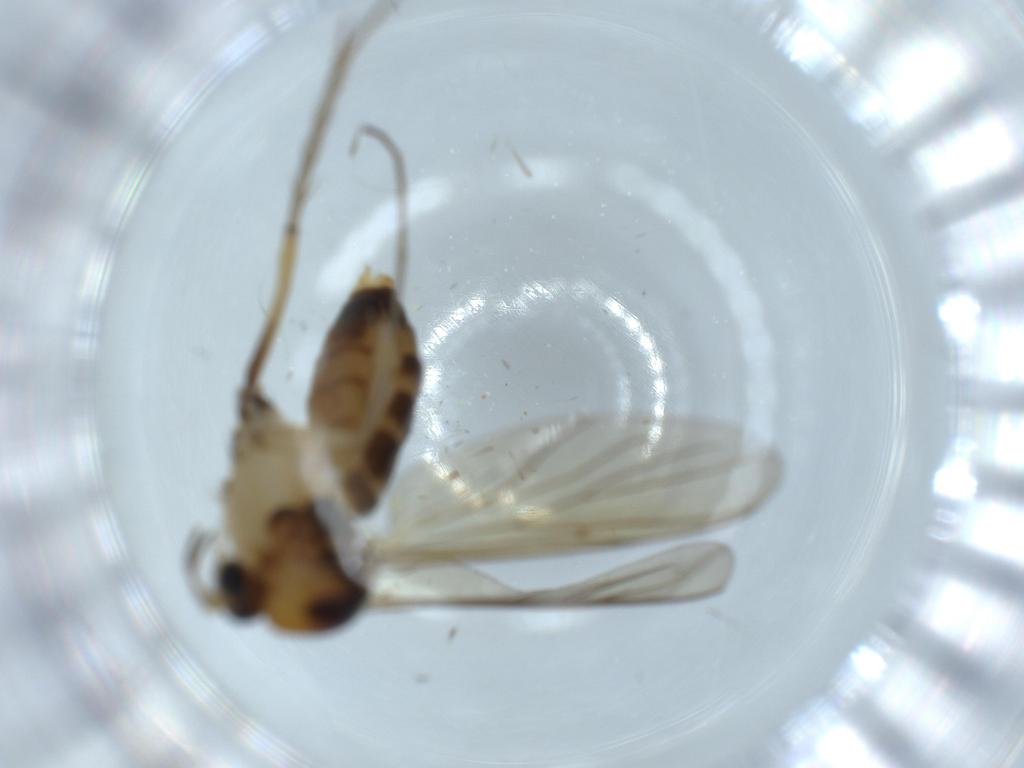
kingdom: Animalia
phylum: Arthropoda
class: Insecta
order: Diptera
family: Mycetophilidae
